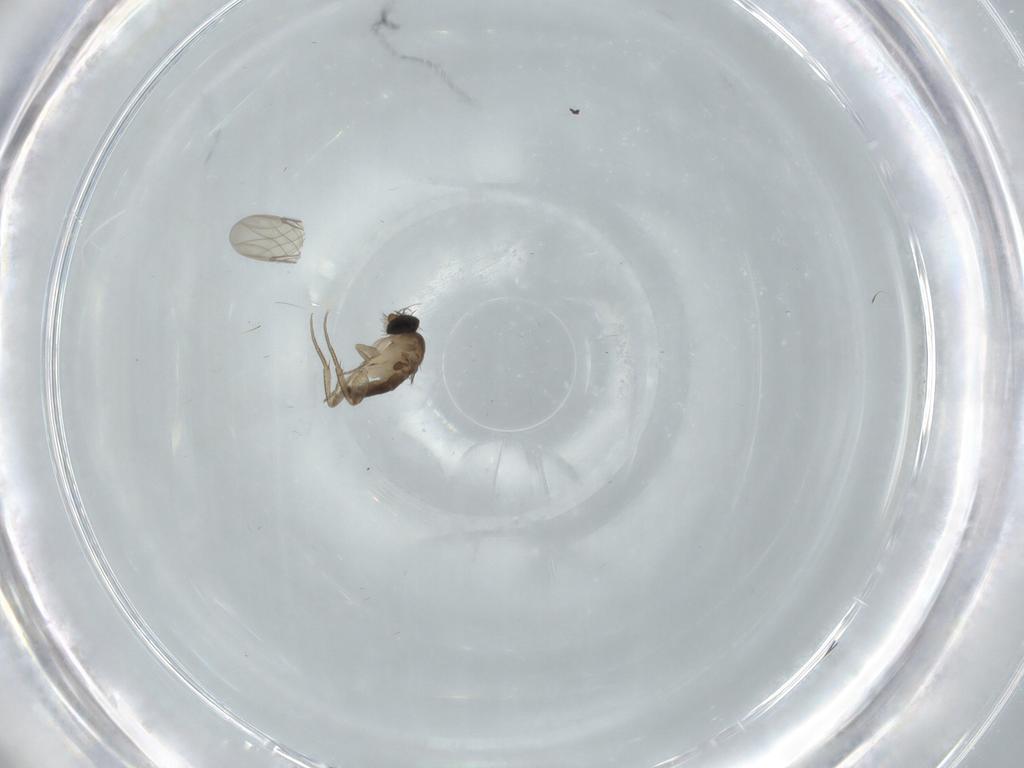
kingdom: Animalia
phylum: Arthropoda
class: Insecta
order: Diptera
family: Phoridae
